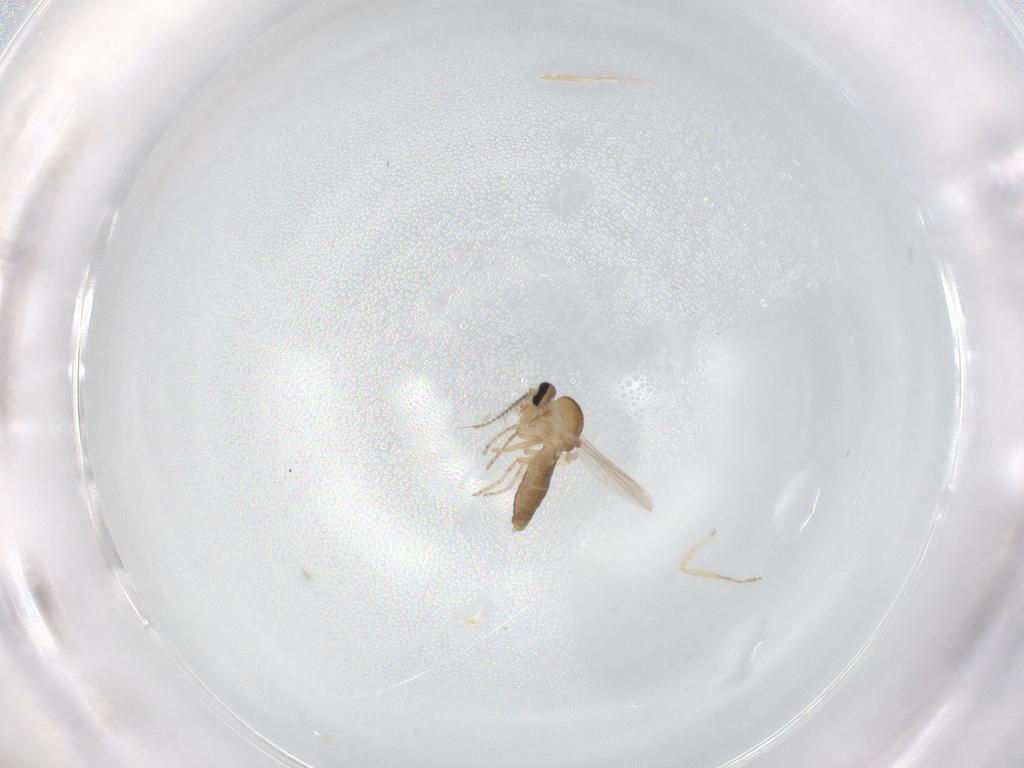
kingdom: Animalia
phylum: Arthropoda
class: Insecta
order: Diptera
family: Ceratopogonidae
